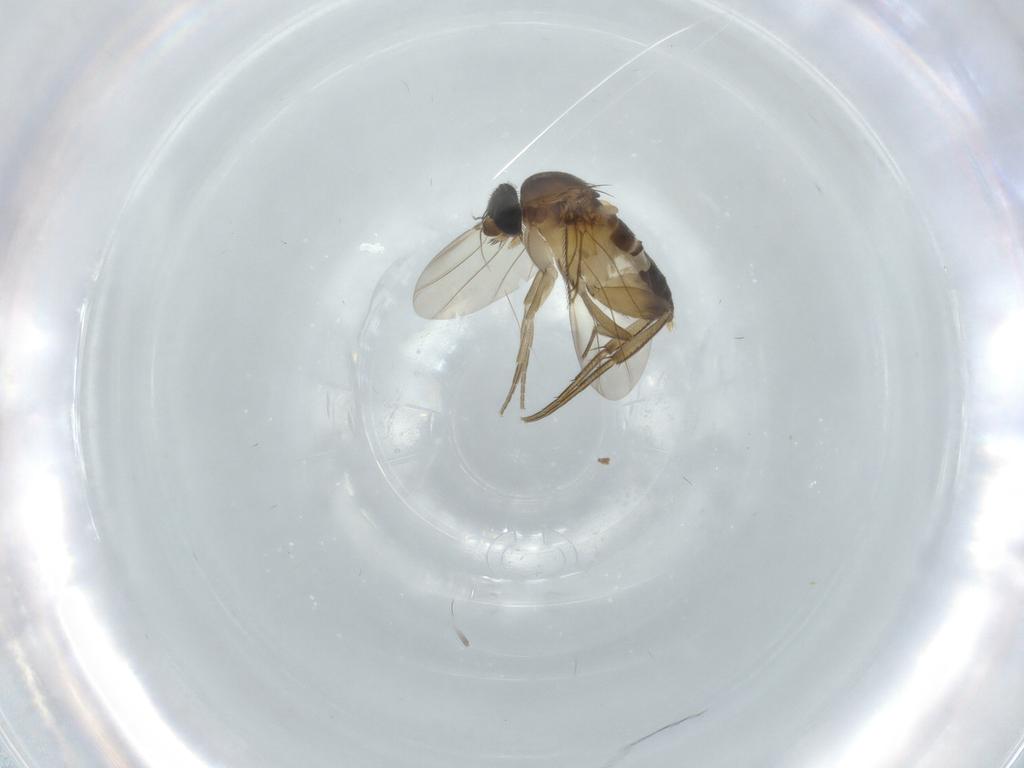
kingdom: Animalia
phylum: Arthropoda
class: Insecta
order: Diptera
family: Phoridae
